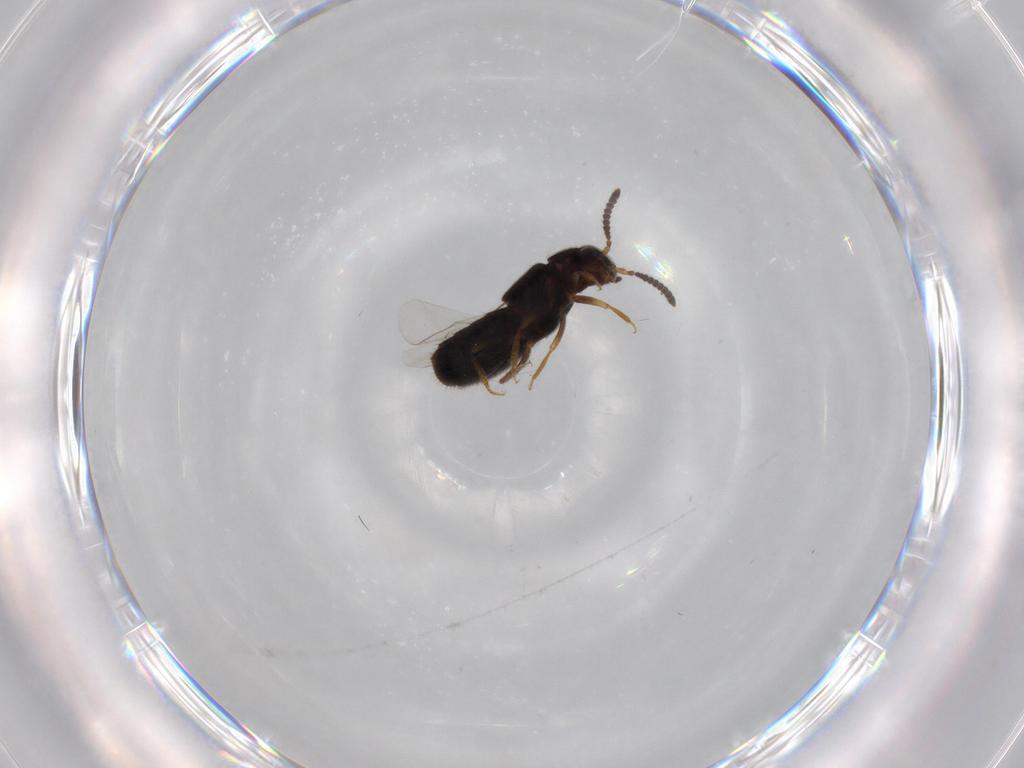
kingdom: Animalia
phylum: Arthropoda
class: Insecta
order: Coleoptera
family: Staphylinidae
